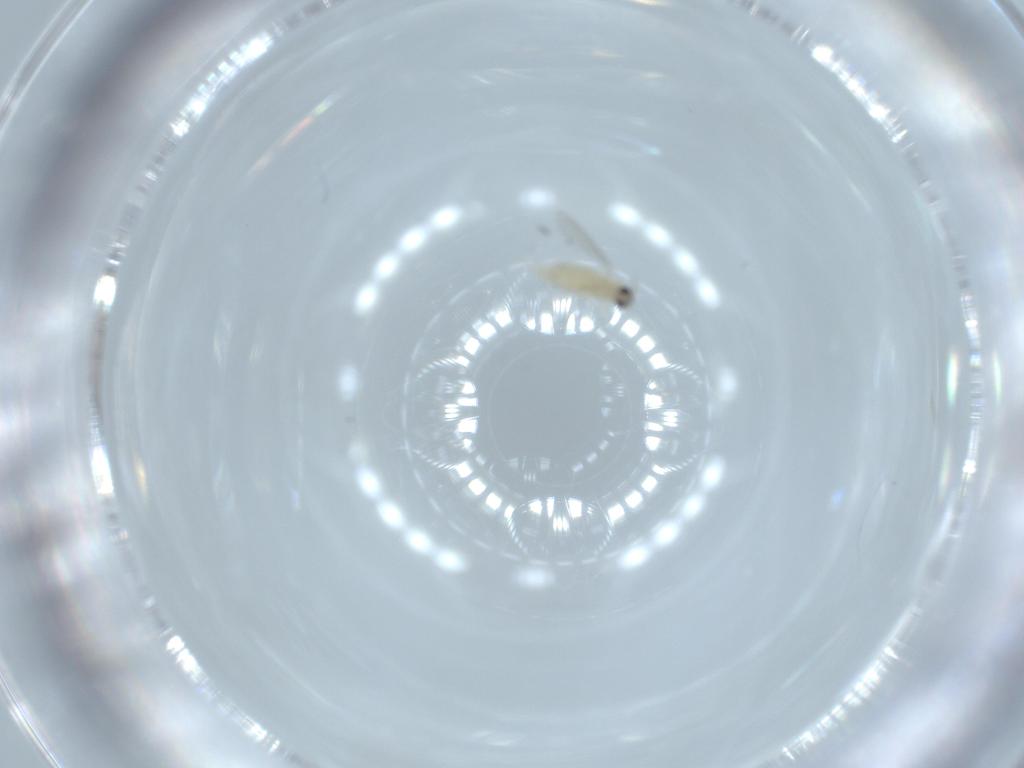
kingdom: Animalia
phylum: Arthropoda
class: Insecta
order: Diptera
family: Cecidomyiidae
